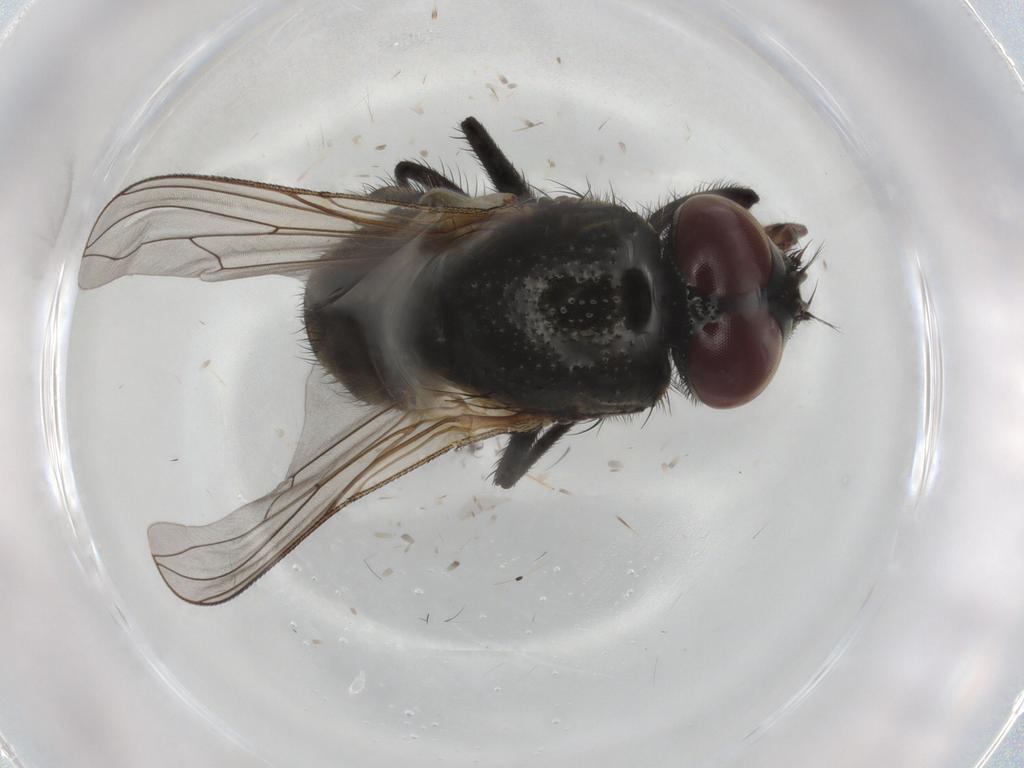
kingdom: Animalia
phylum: Arthropoda
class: Insecta
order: Diptera
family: Muscidae
